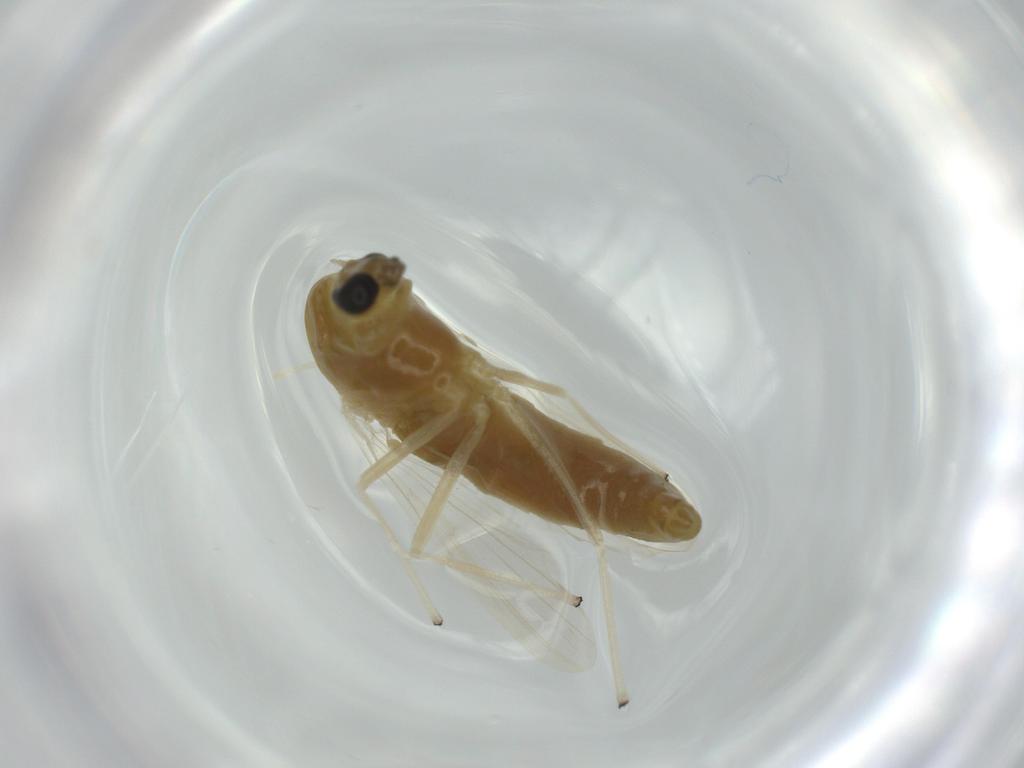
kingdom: Animalia
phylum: Arthropoda
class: Insecta
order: Diptera
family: Chironomidae
